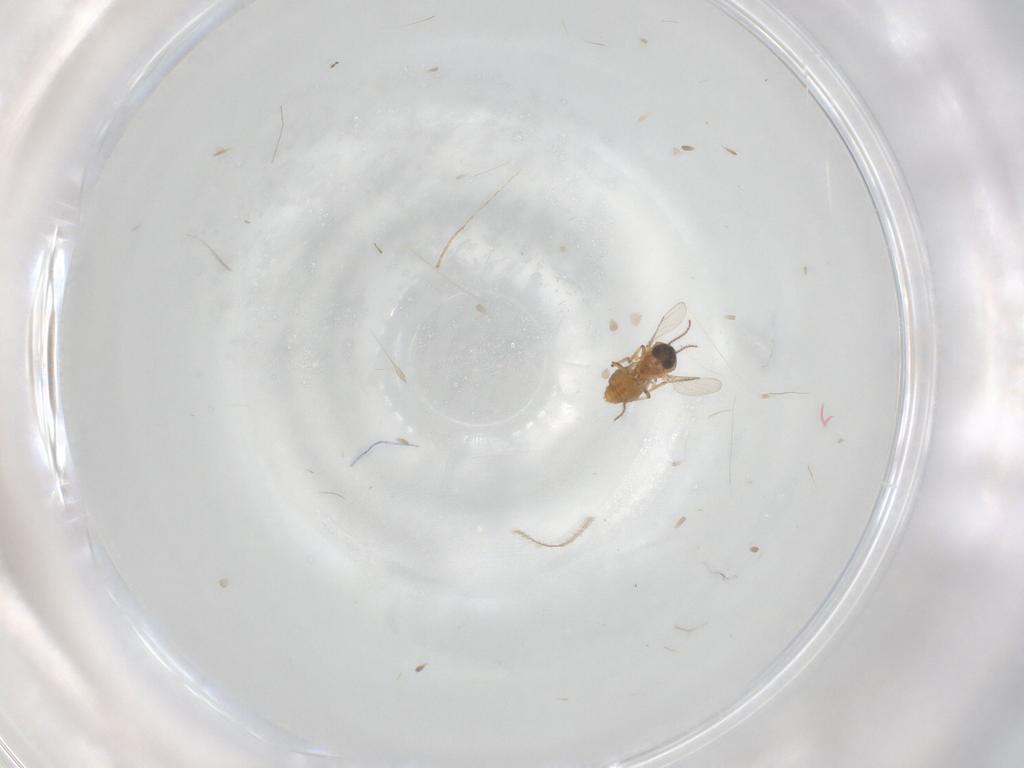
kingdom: Animalia
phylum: Arthropoda
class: Insecta
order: Diptera
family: Ceratopogonidae
